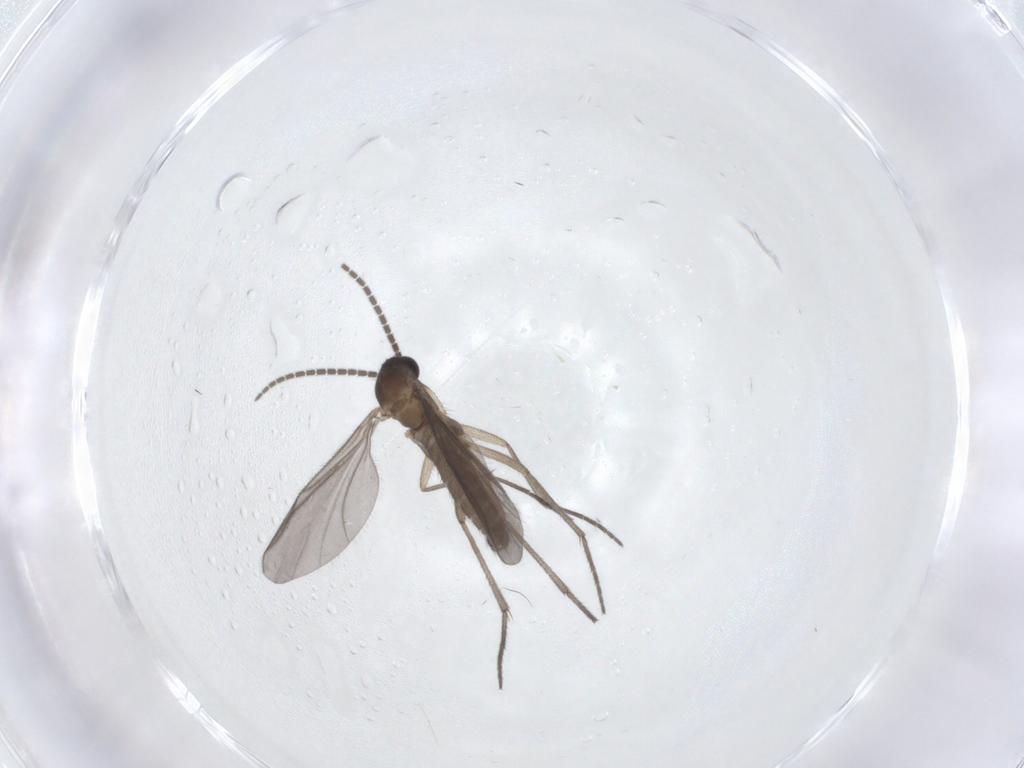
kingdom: Animalia
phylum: Arthropoda
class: Insecta
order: Diptera
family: Sciaridae
